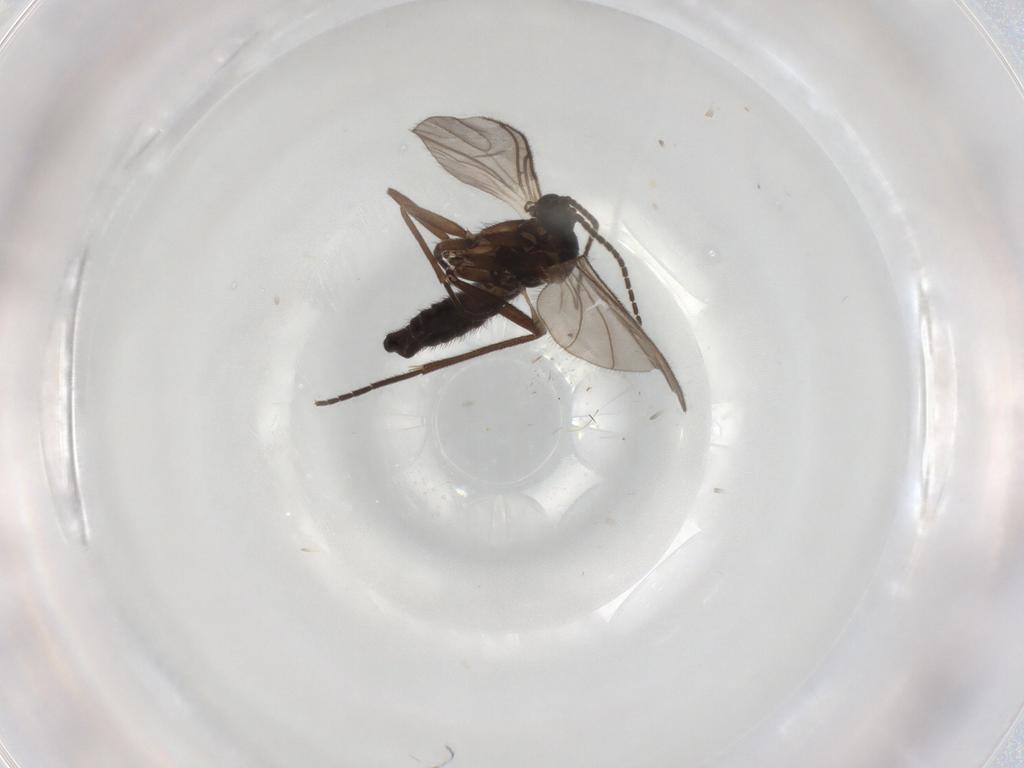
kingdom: Animalia
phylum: Arthropoda
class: Insecta
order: Diptera
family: Sciaridae
